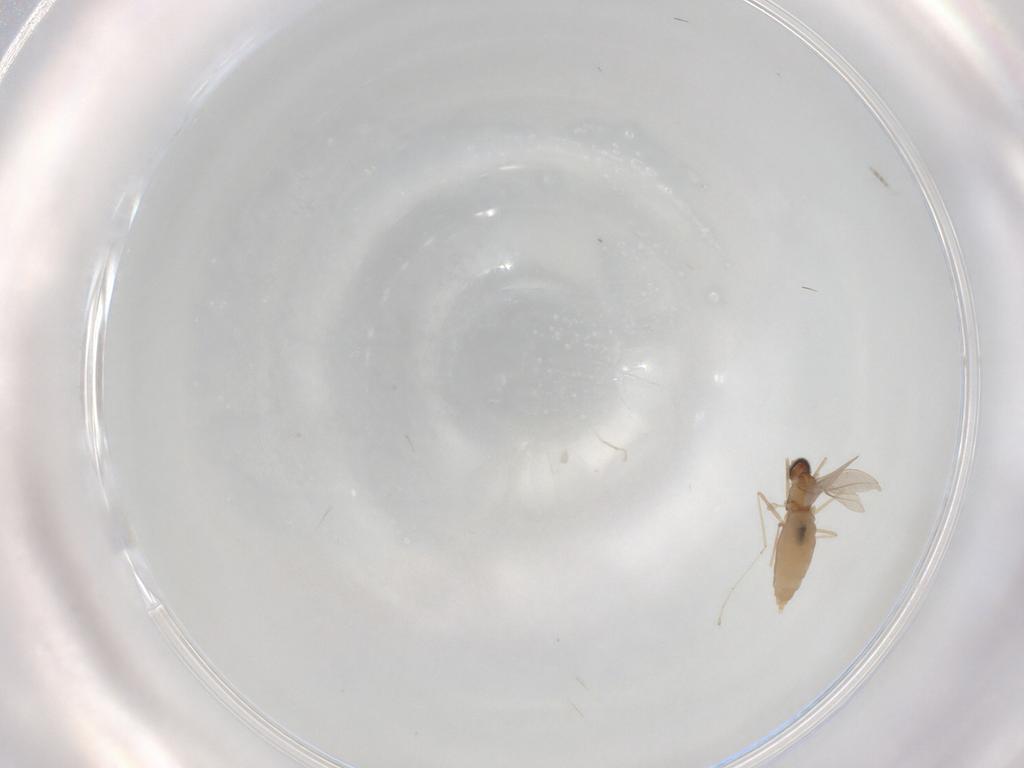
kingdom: Animalia
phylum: Arthropoda
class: Insecta
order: Diptera
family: Cecidomyiidae
